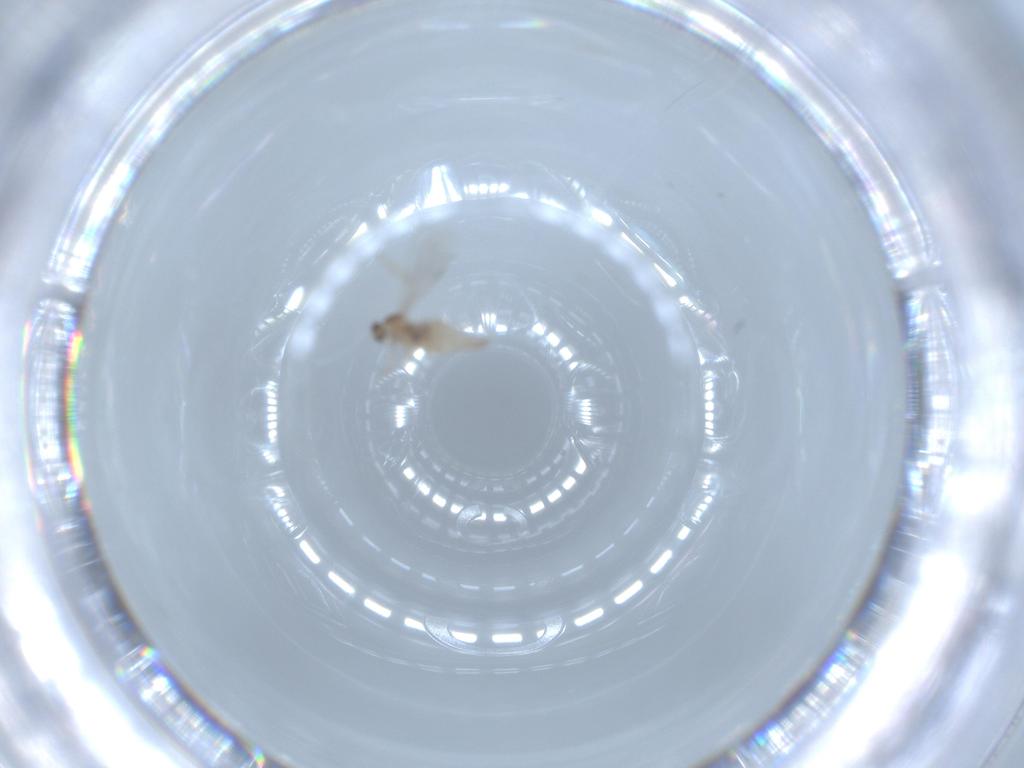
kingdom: Animalia
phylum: Arthropoda
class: Insecta
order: Diptera
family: Cecidomyiidae
